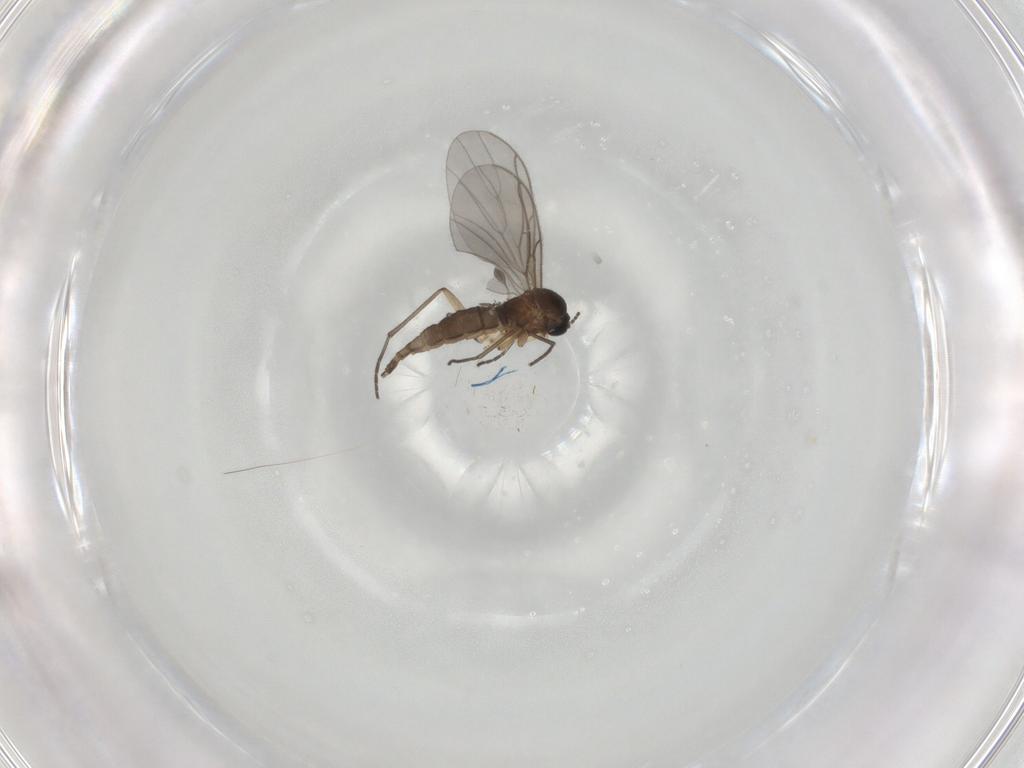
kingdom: Animalia
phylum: Arthropoda
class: Insecta
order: Diptera
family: Sciaridae
